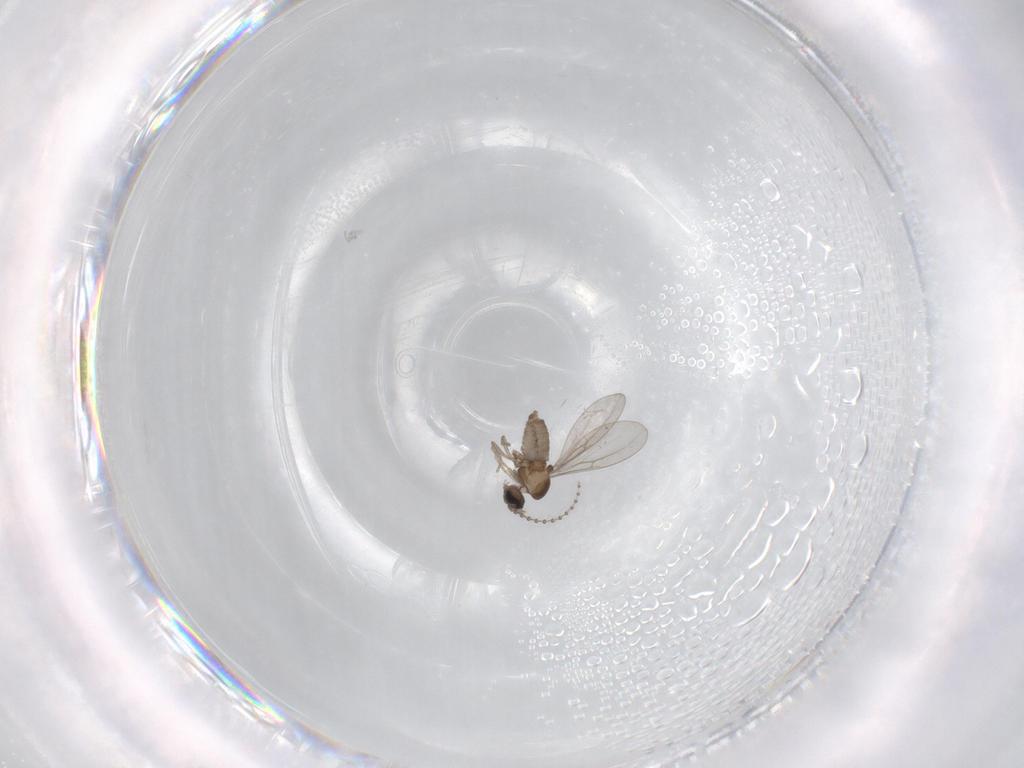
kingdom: Animalia
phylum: Arthropoda
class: Insecta
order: Diptera
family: Cecidomyiidae
